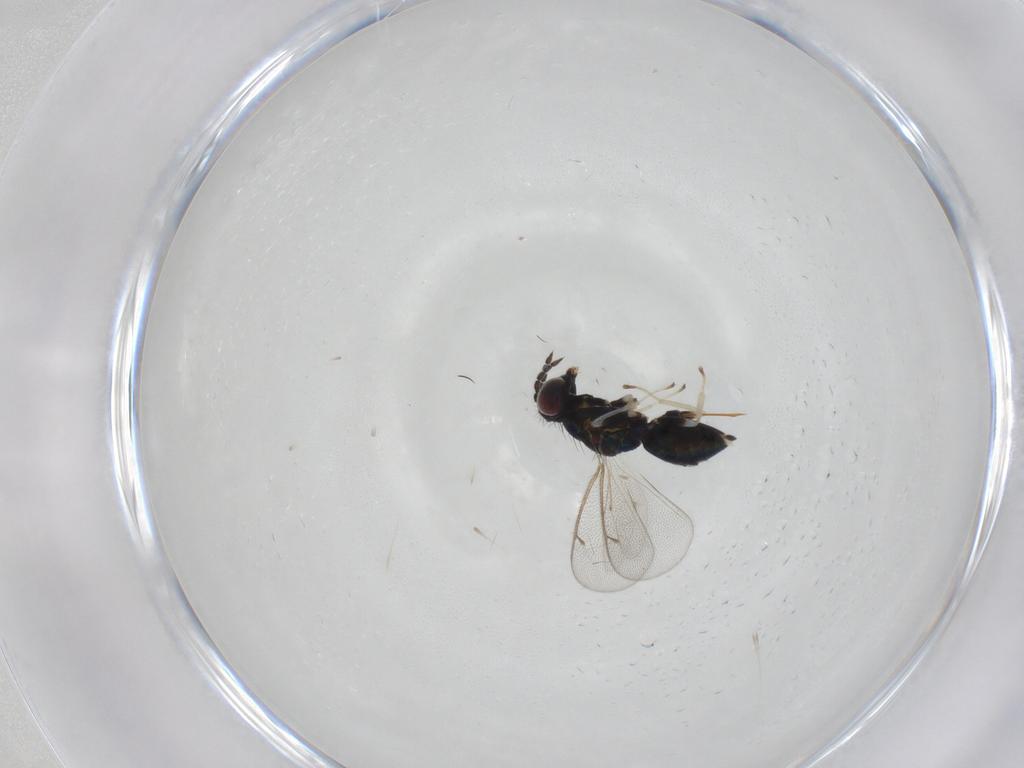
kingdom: Animalia
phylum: Arthropoda
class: Insecta
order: Hymenoptera
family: Eulophidae
